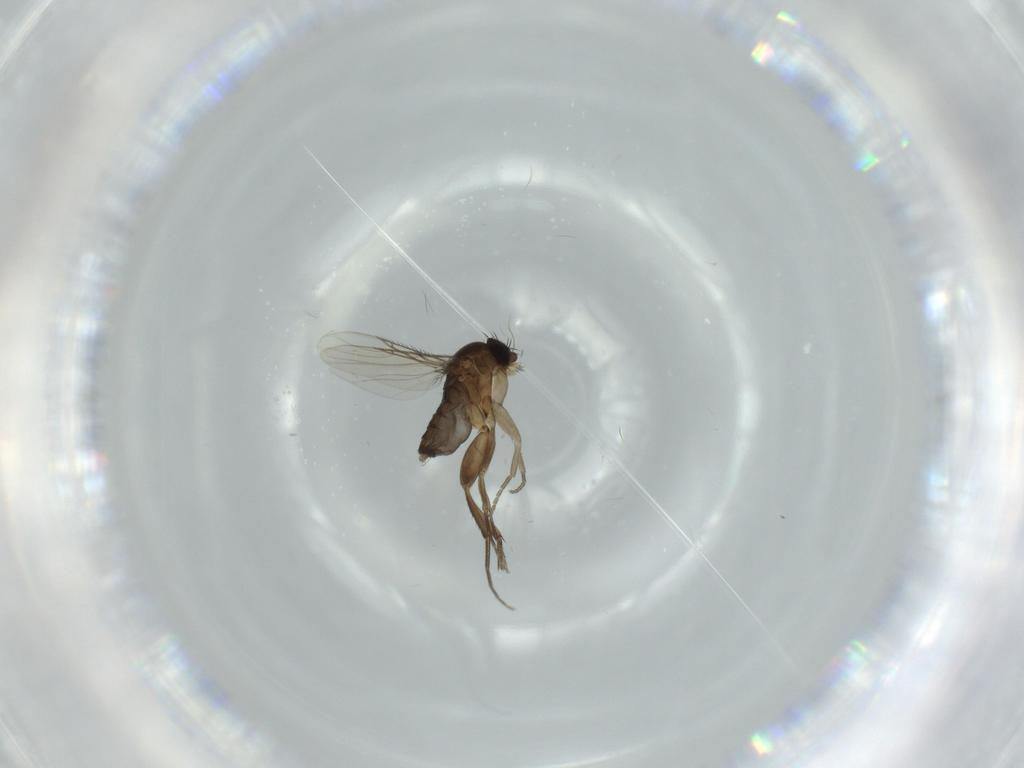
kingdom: Animalia
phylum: Arthropoda
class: Insecta
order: Diptera
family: Phoridae
